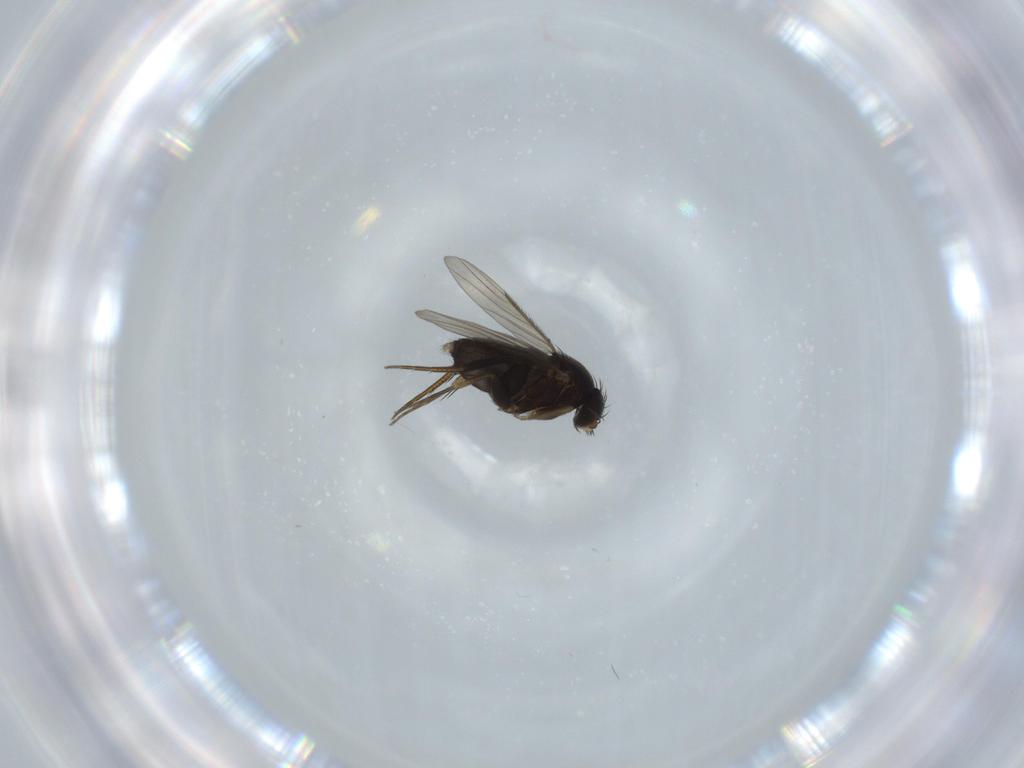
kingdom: Animalia
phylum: Arthropoda
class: Insecta
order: Diptera
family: Phoridae
